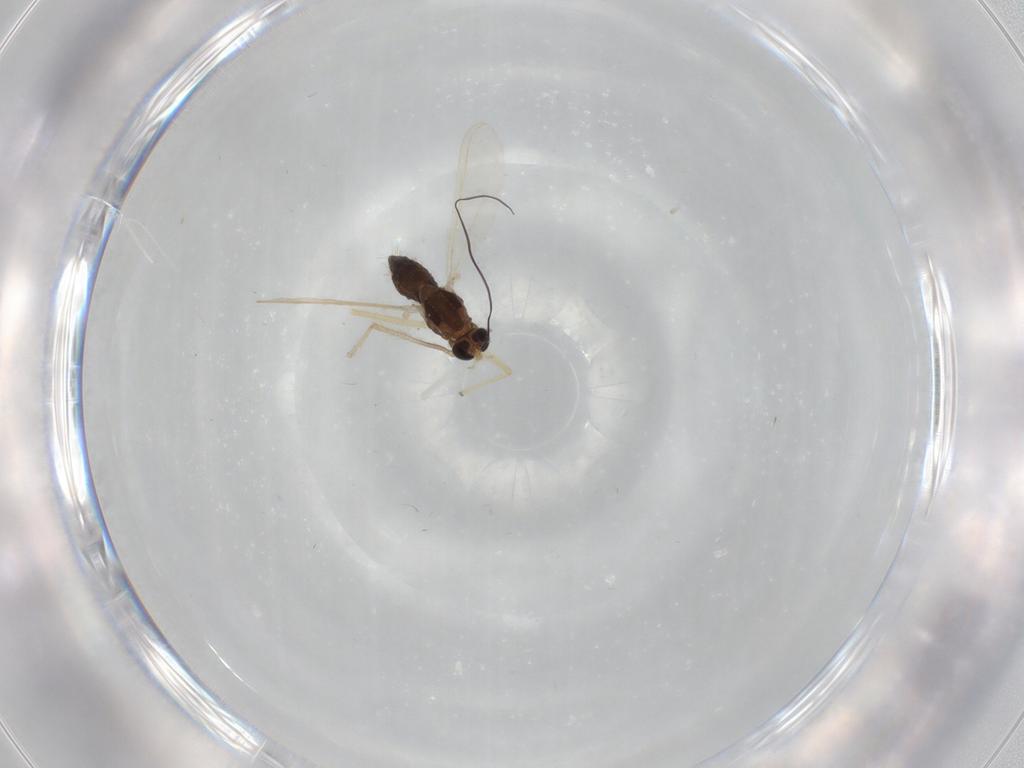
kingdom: Animalia
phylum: Arthropoda
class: Insecta
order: Diptera
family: Chironomidae
